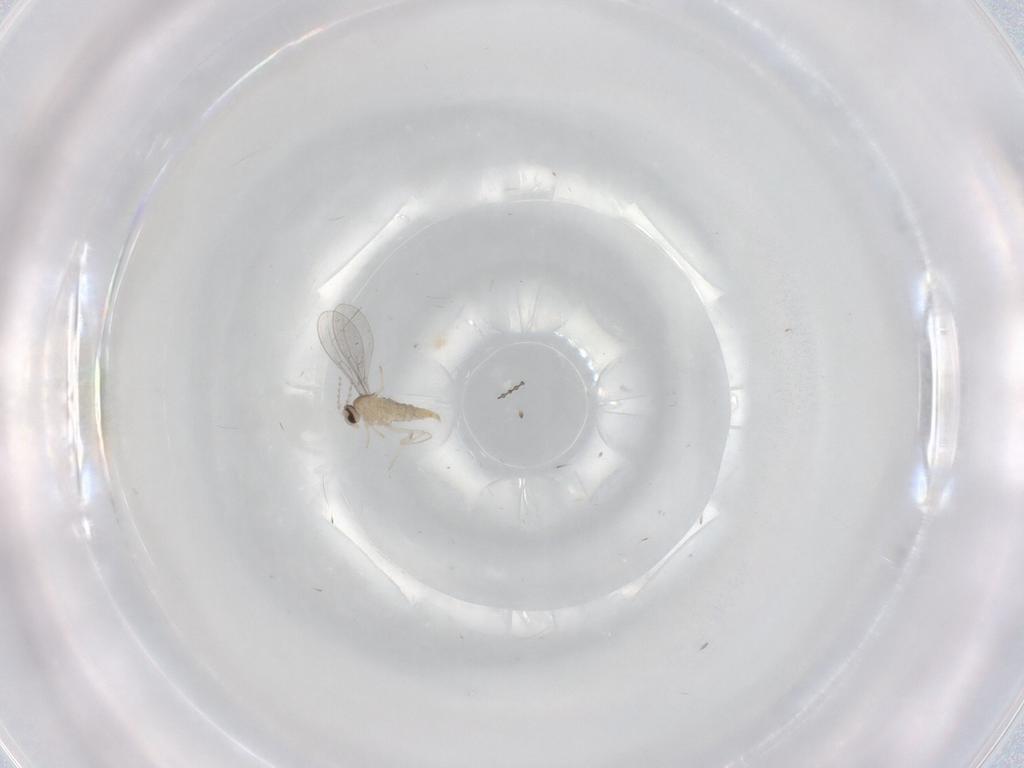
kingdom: Animalia
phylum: Arthropoda
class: Insecta
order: Diptera
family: Cecidomyiidae
